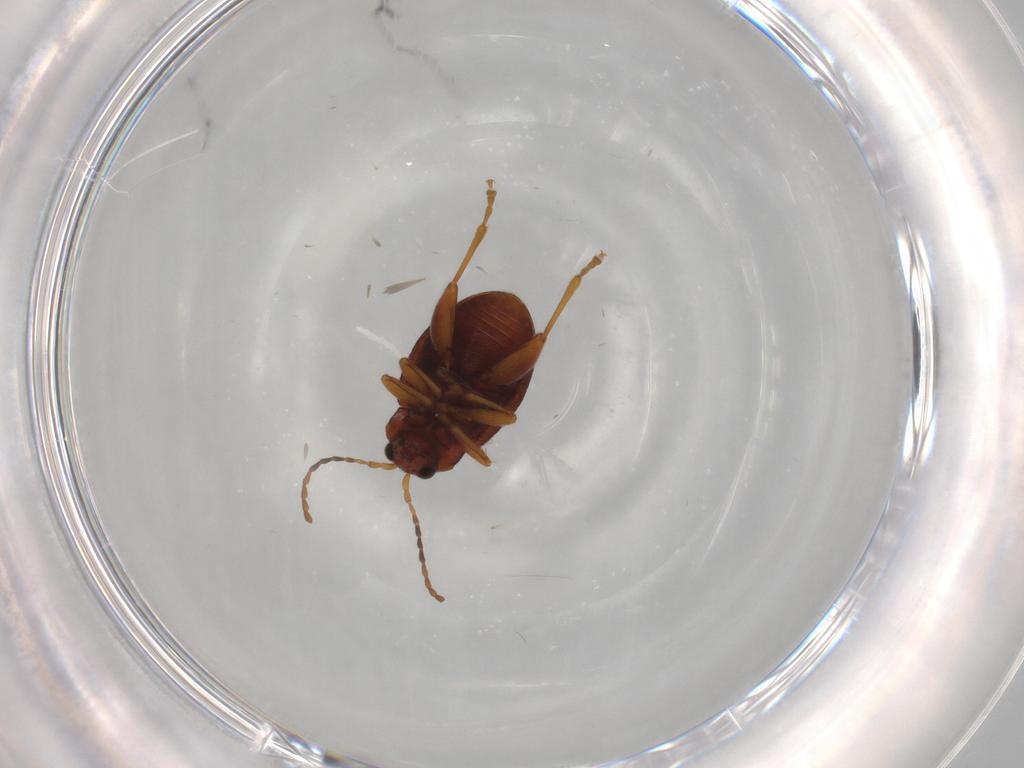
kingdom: Animalia
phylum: Arthropoda
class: Insecta
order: Coleoptera
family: Chrysomelidae
